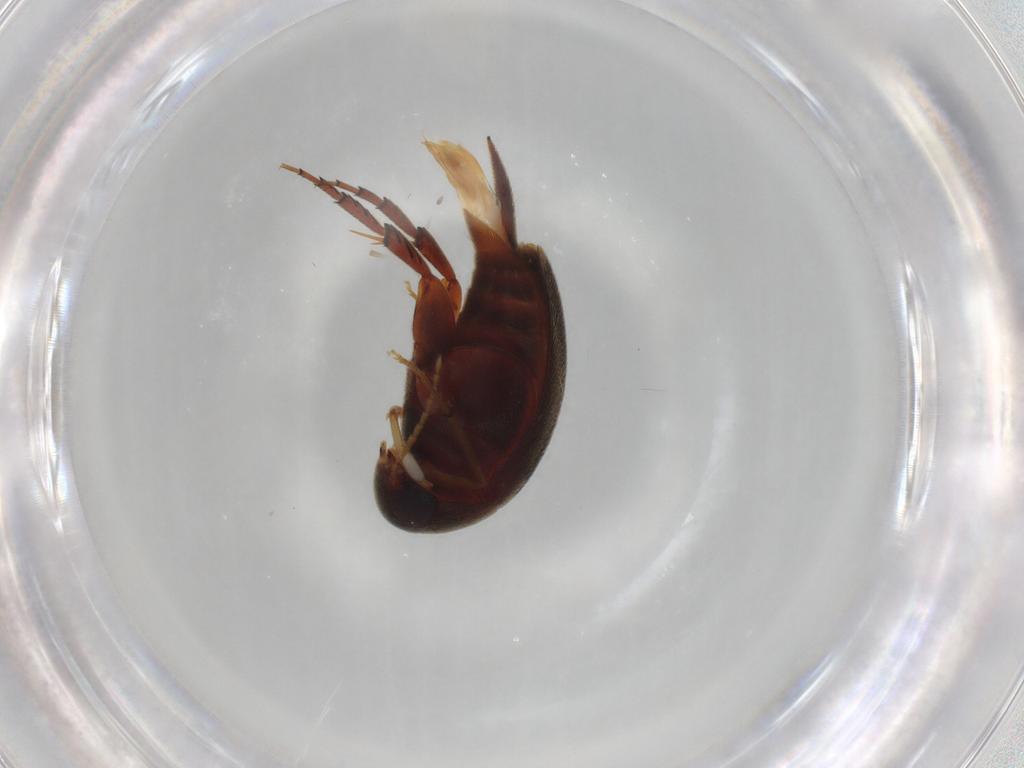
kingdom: Animalia
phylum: Arthropoda
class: Insecta
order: Coleoptera
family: Mordellidae
